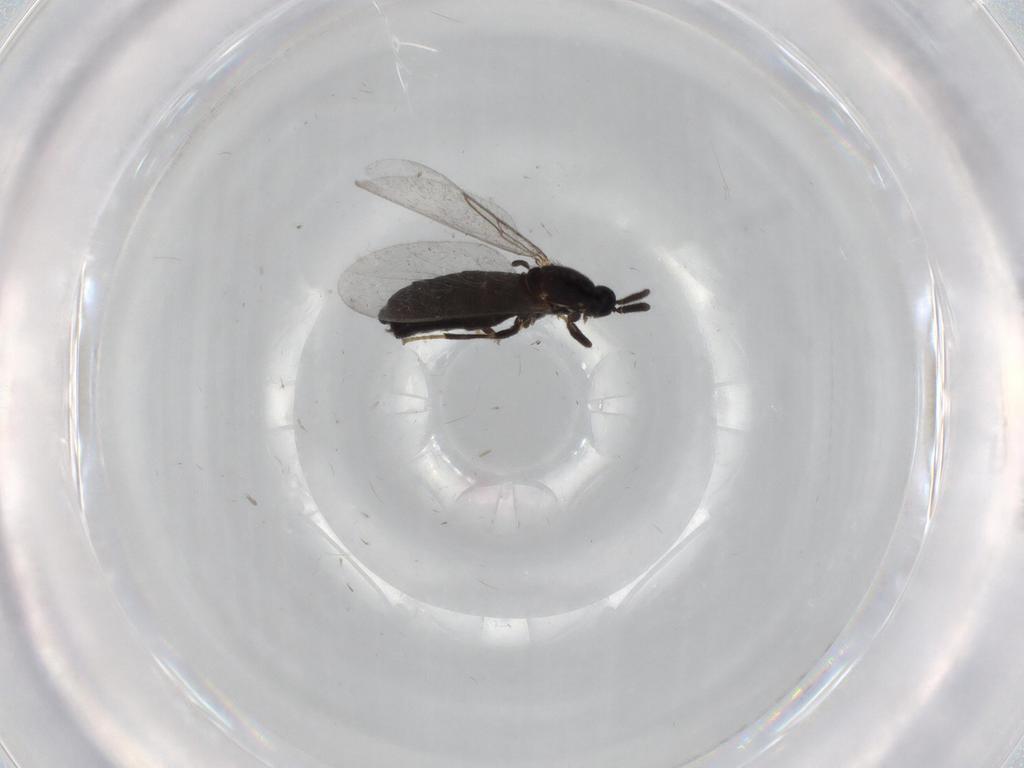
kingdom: Animalia
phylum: Arthropoda
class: Insecta
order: Diptera
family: Scatopsidae
